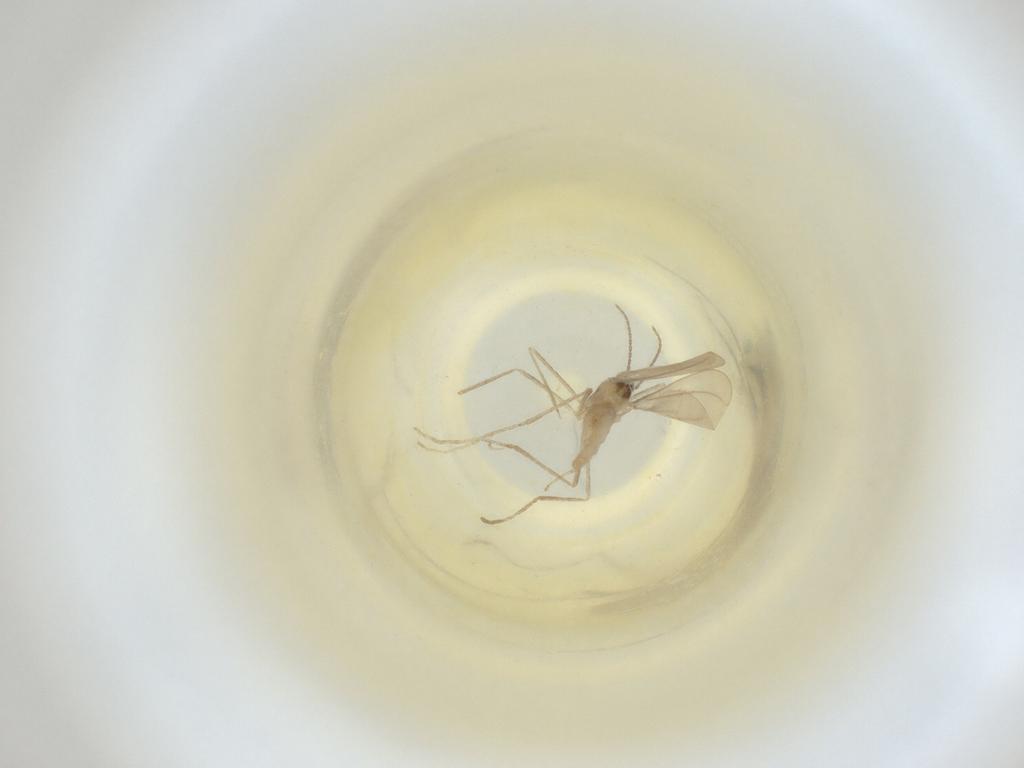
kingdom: Animalia
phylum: Arthropoda
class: Insecta
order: Diptera
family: Cecidomyiidae
